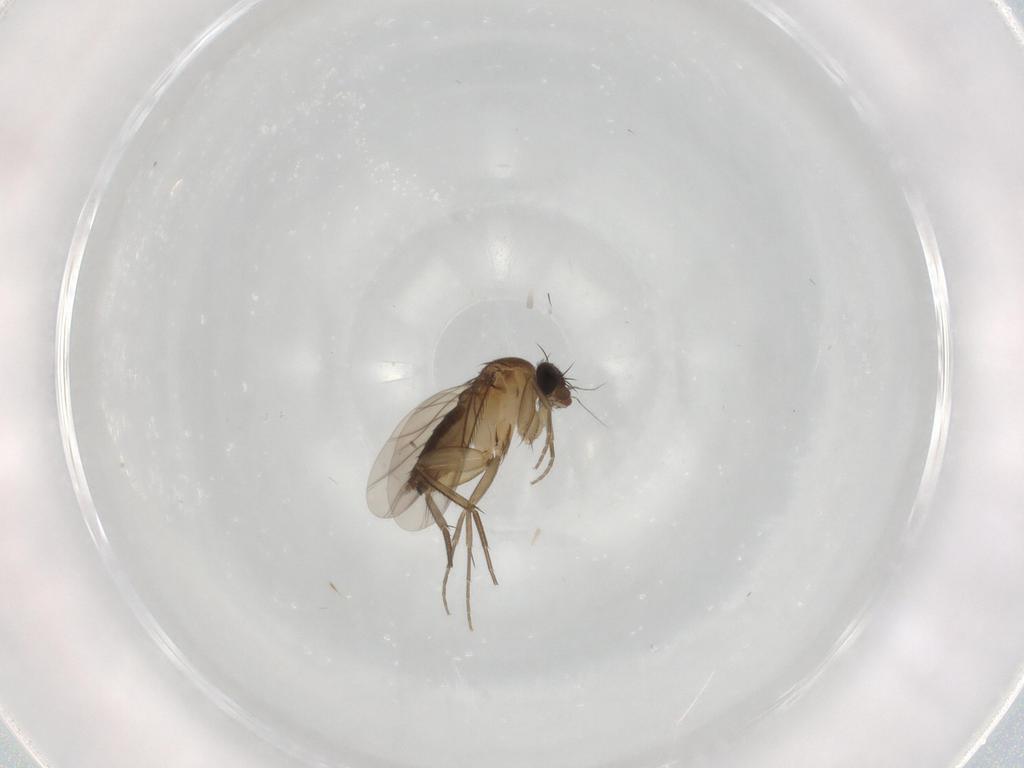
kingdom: Animalia
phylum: Arthropoda
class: Insecta
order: Diptera
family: Phoridae
